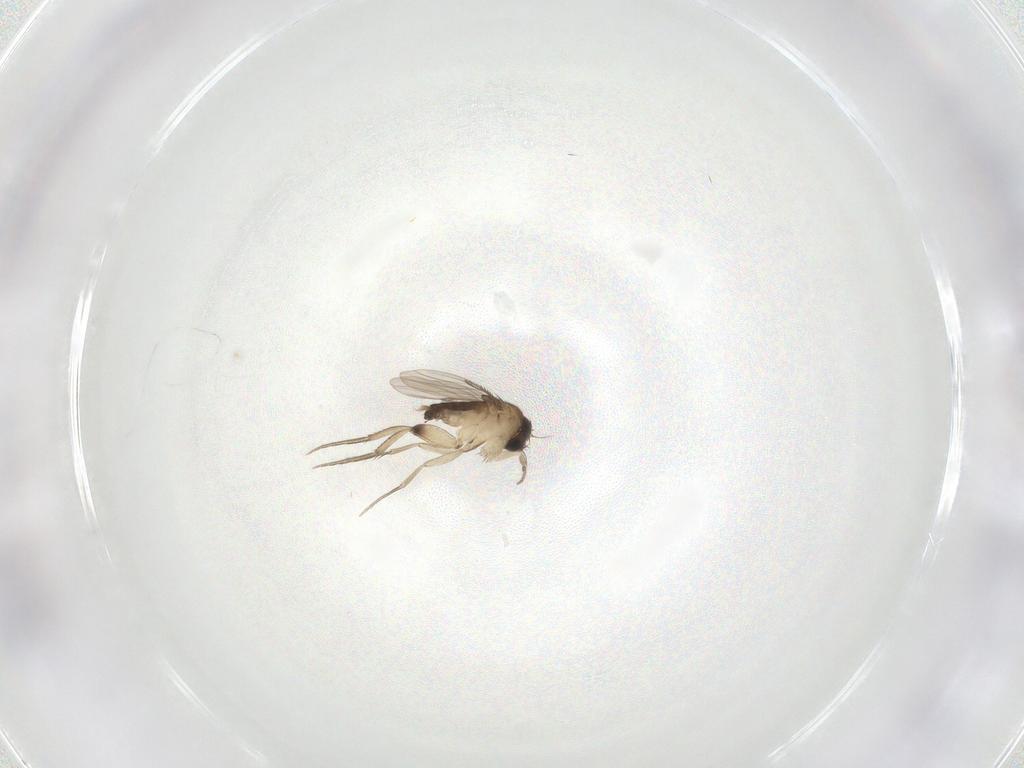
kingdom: Animalia
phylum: Arthropoda
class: Insecta
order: Diptera
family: Phoridae
